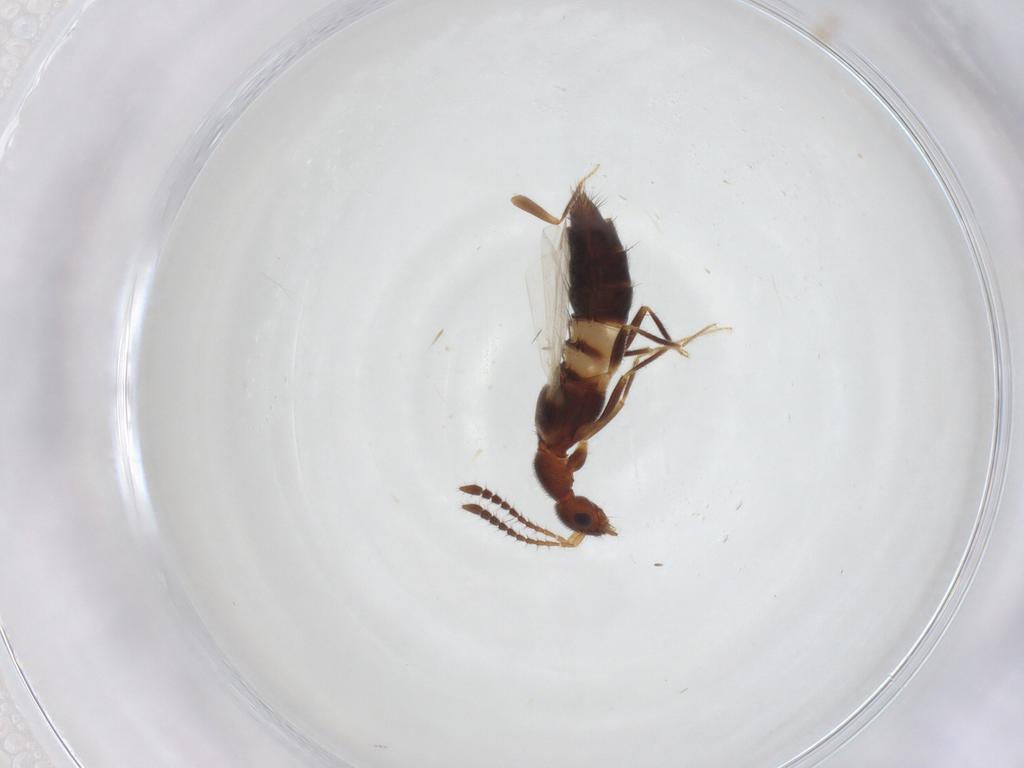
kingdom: Animalia
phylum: Arthropoda
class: Insecta
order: Coleoptera
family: Staphylinidae
